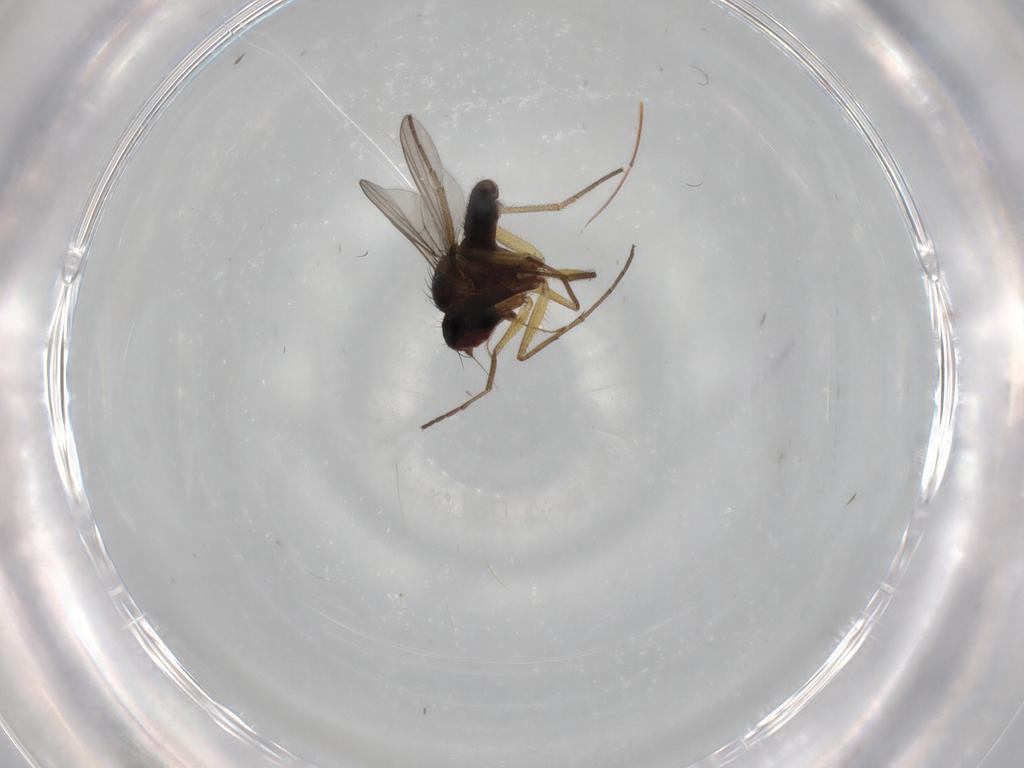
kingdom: Animalia
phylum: Arthropoda
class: Insecta
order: Diptera
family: Dolichopodidae
